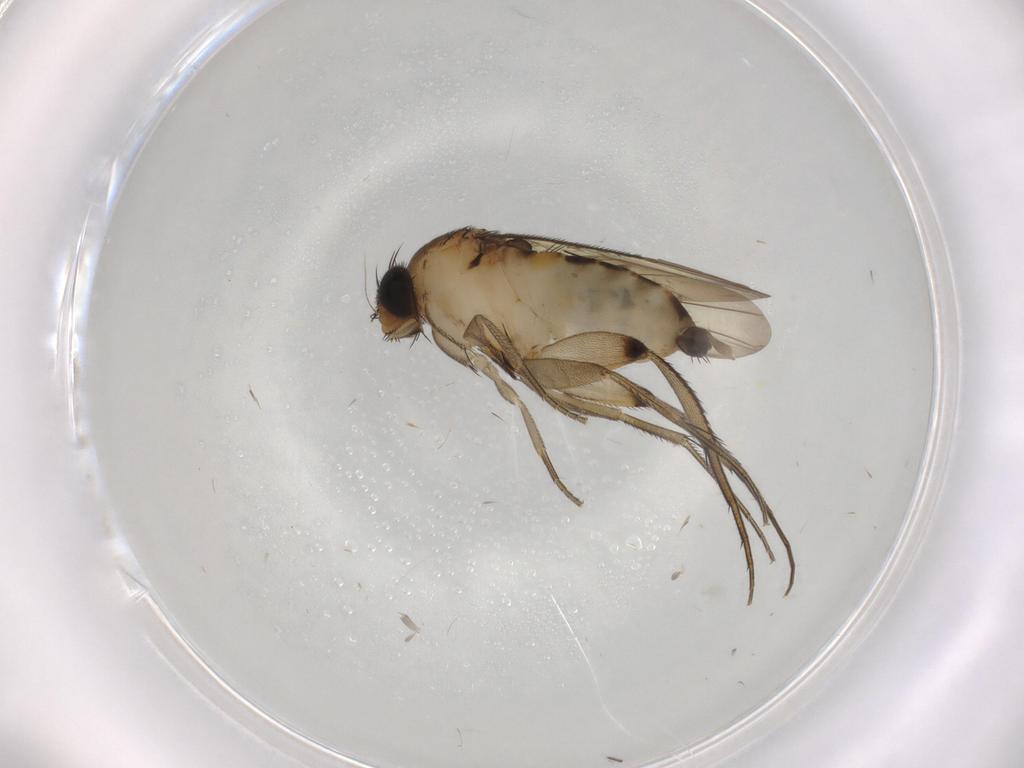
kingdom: Animalia
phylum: Arthropoda
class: Insecta
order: Diptera
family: Phoridae
